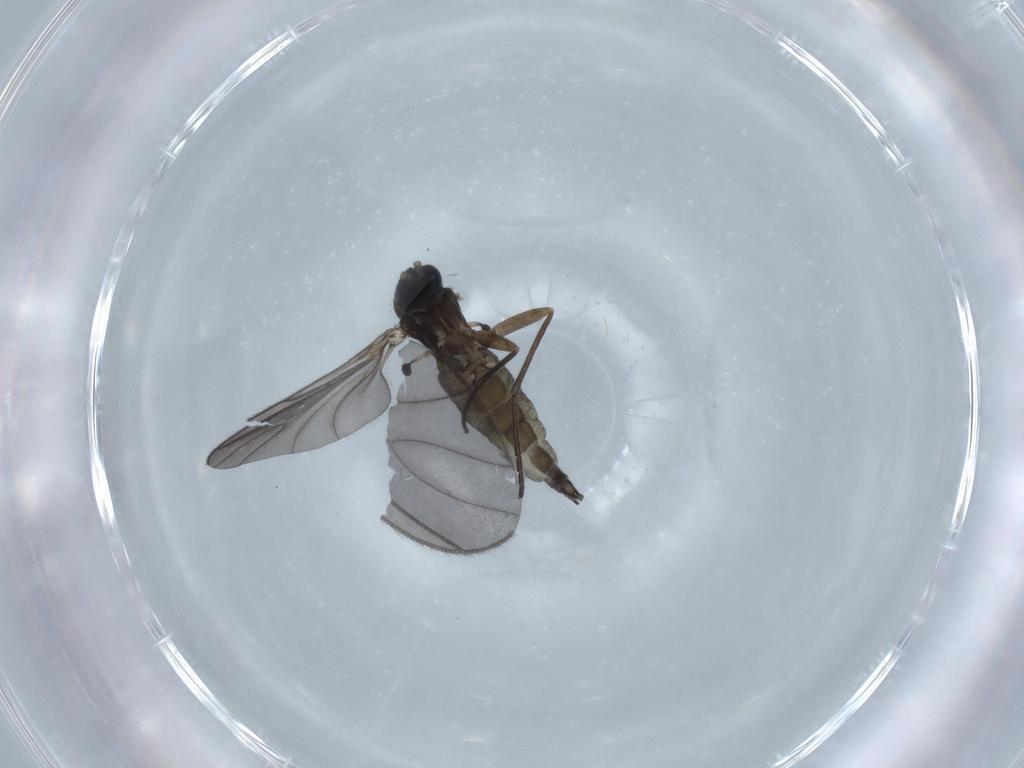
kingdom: Animalia
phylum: Arthropoda
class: Insecta
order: Diptera
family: Sciaridae
